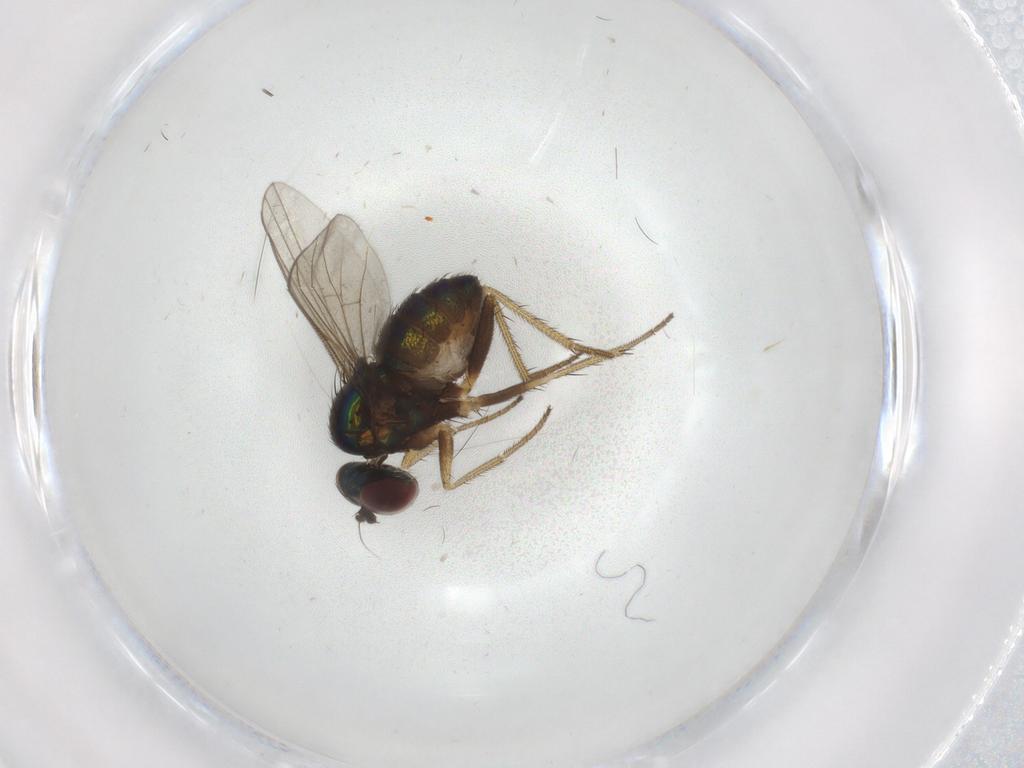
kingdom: Animalia
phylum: Arthropoda
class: Insecta
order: Diptera
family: Dolichopodidae
